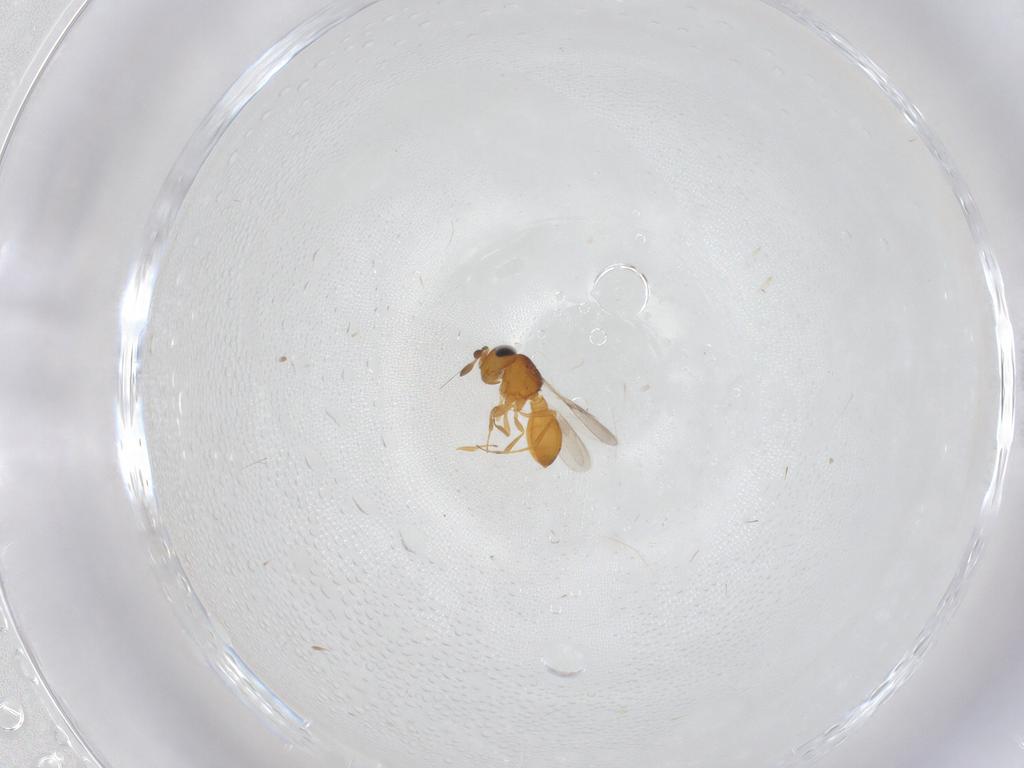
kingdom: Animalia
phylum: Arthropoda
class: Insecta
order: Hymenoptera
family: Scelionidae
